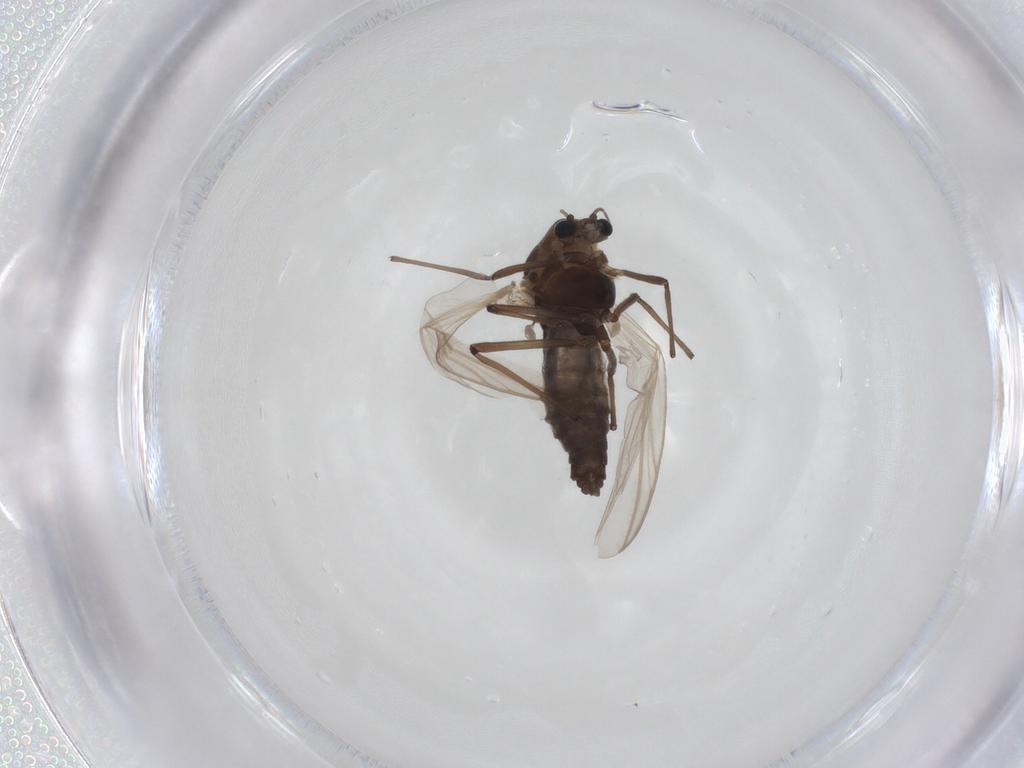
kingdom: Animalia
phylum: Arthropoda
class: Insecta
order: Diptera
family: Chironomidae
